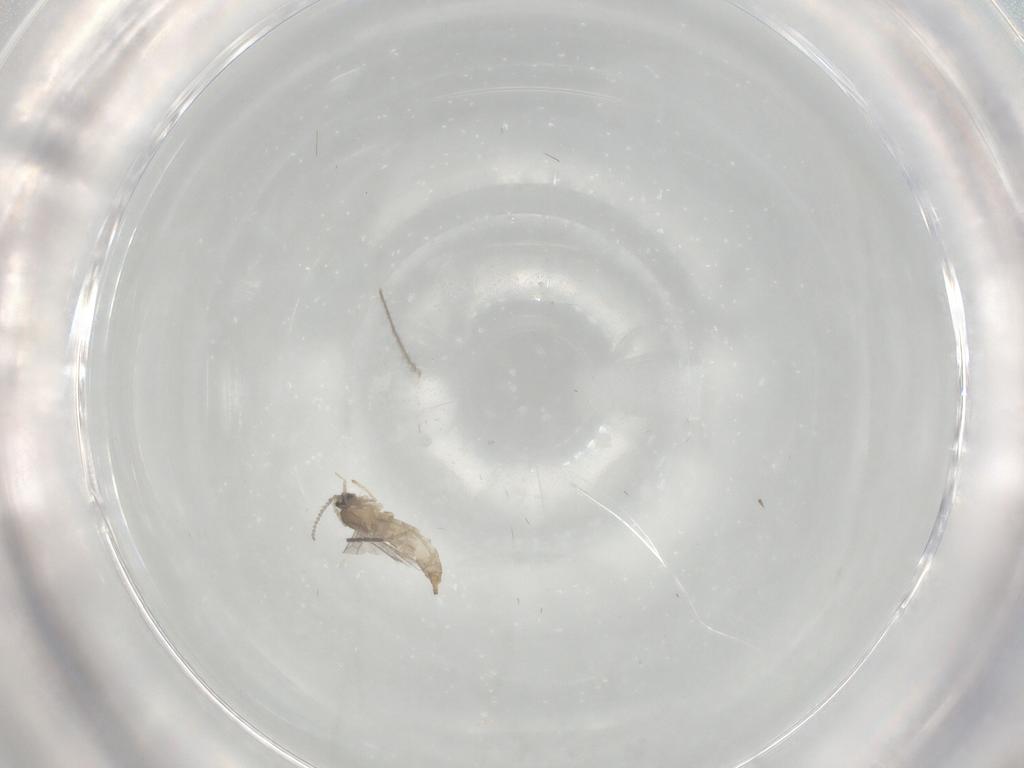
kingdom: Animalia
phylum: Arthropoda
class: Insecta
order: Diptera
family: Cecidomyiidae
